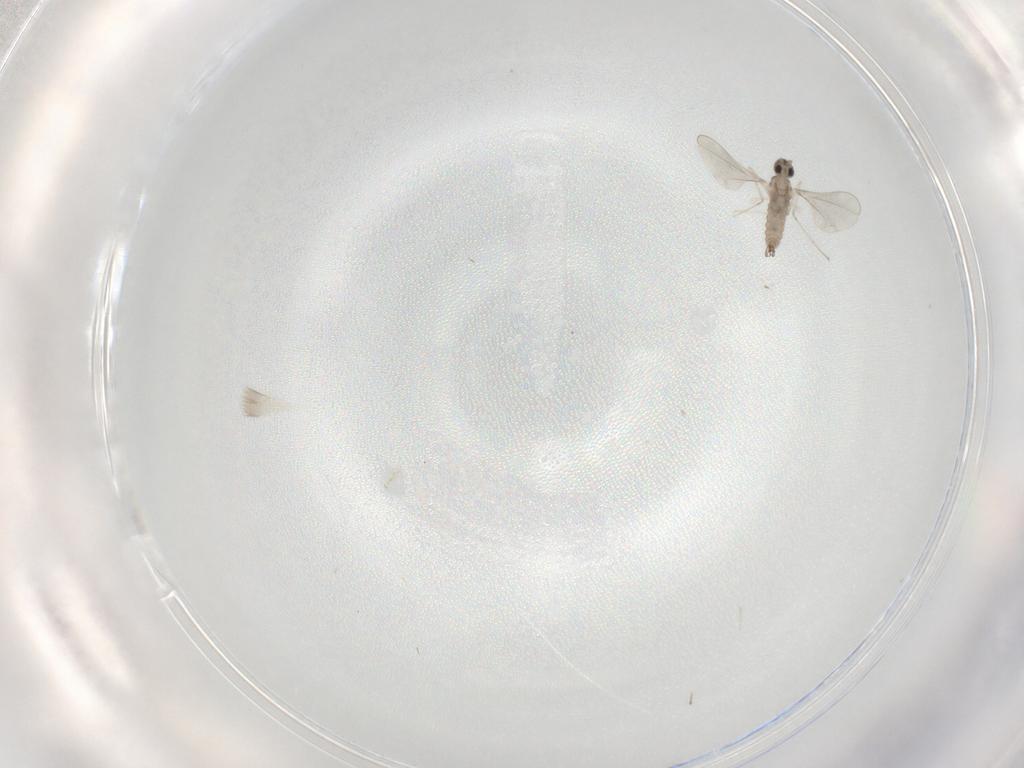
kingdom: Animalia
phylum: Arthropoda
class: Insecta
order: Diptera
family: Cecidomyiidae
